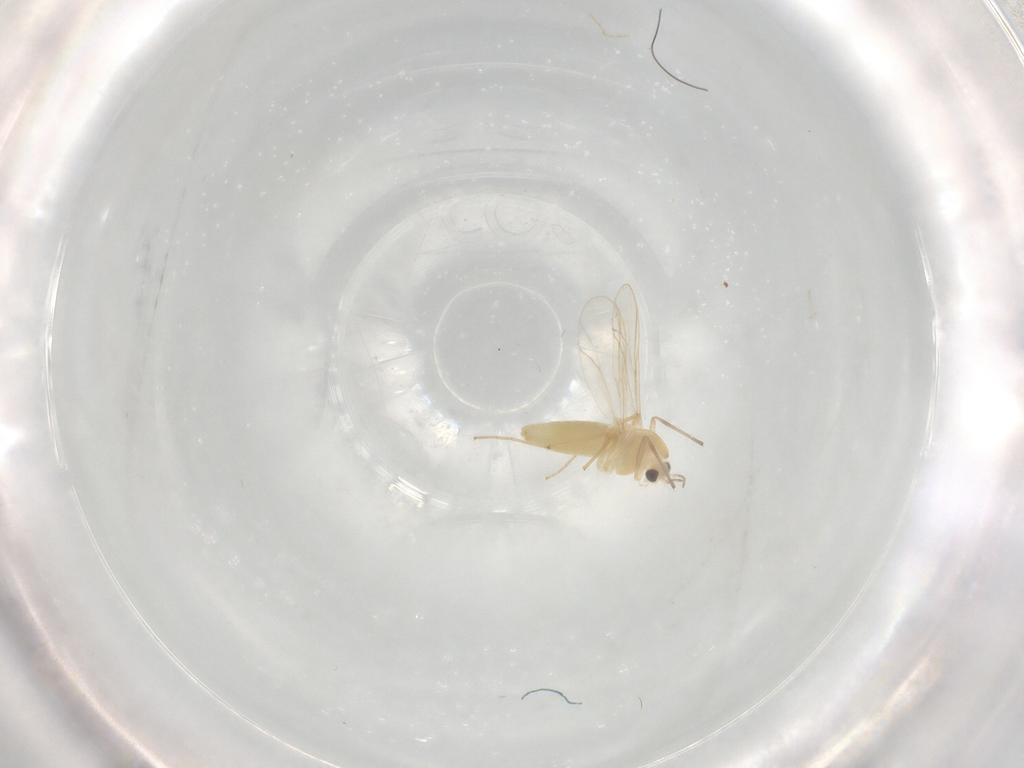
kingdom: Animalia
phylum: Arthropoda
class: Insecta
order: Diptera
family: Chironomidae
